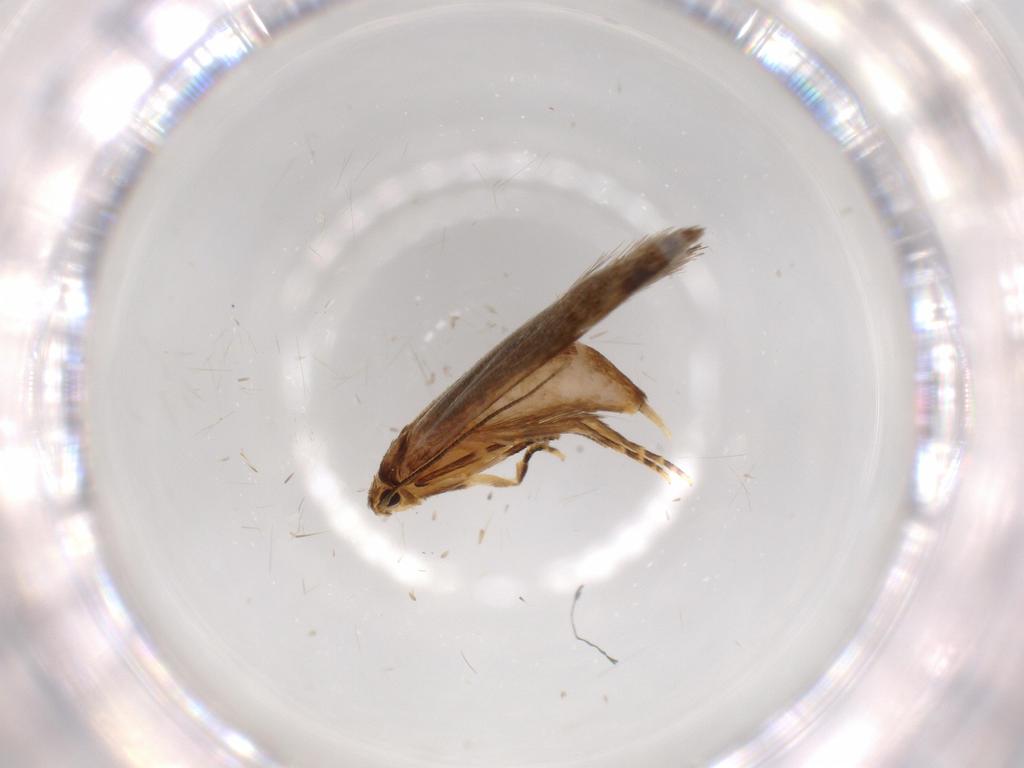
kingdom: Animalia
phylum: Arthropoda
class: Insecta
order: Lepidoptera
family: Tineidae
